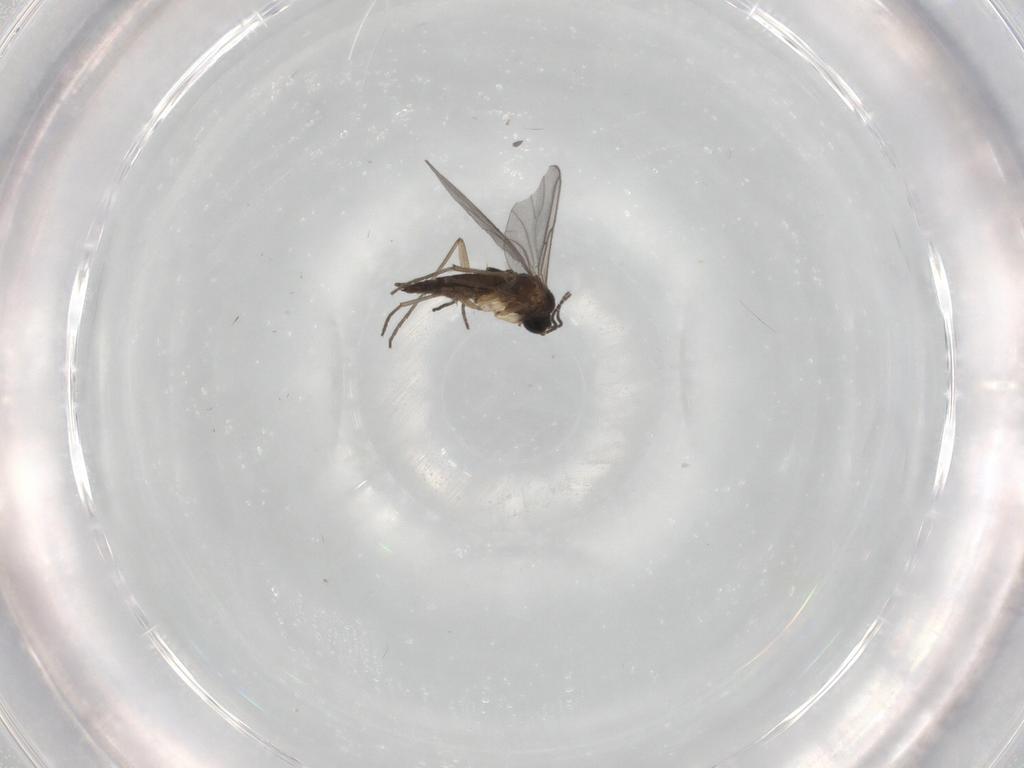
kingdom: Animalia
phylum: Arthropoda
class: Insecta
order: Diptera
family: Sciaridae
